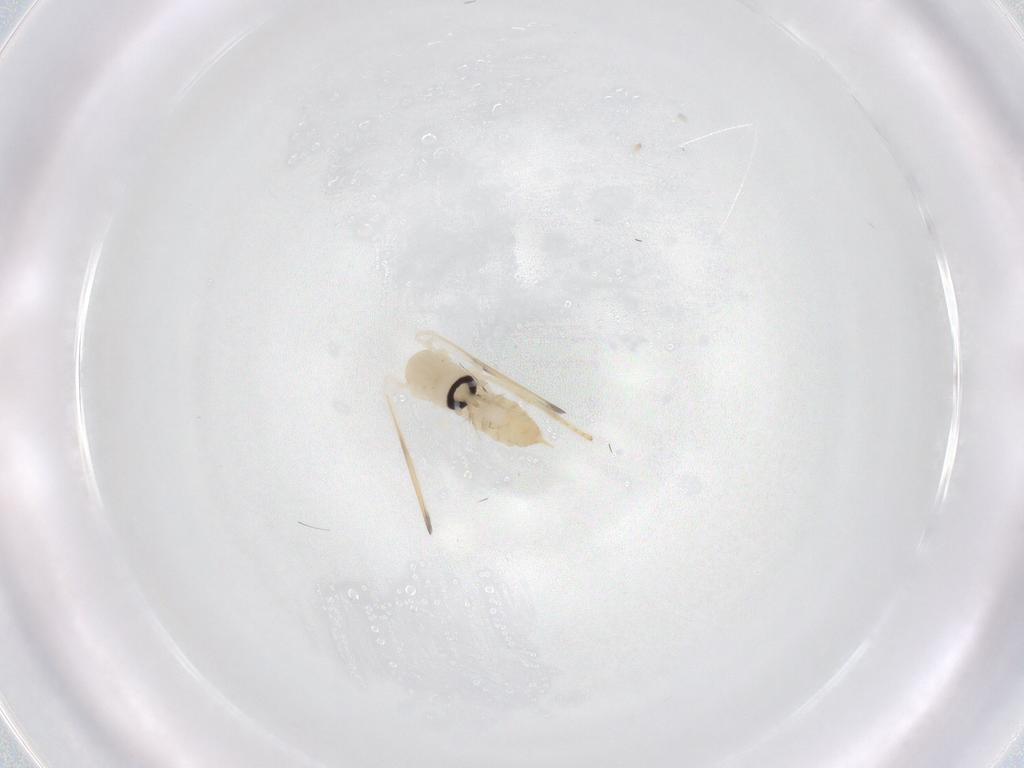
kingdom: Animalia
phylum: Arthropoda
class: Insecta
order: Diptera
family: Psychodidae
